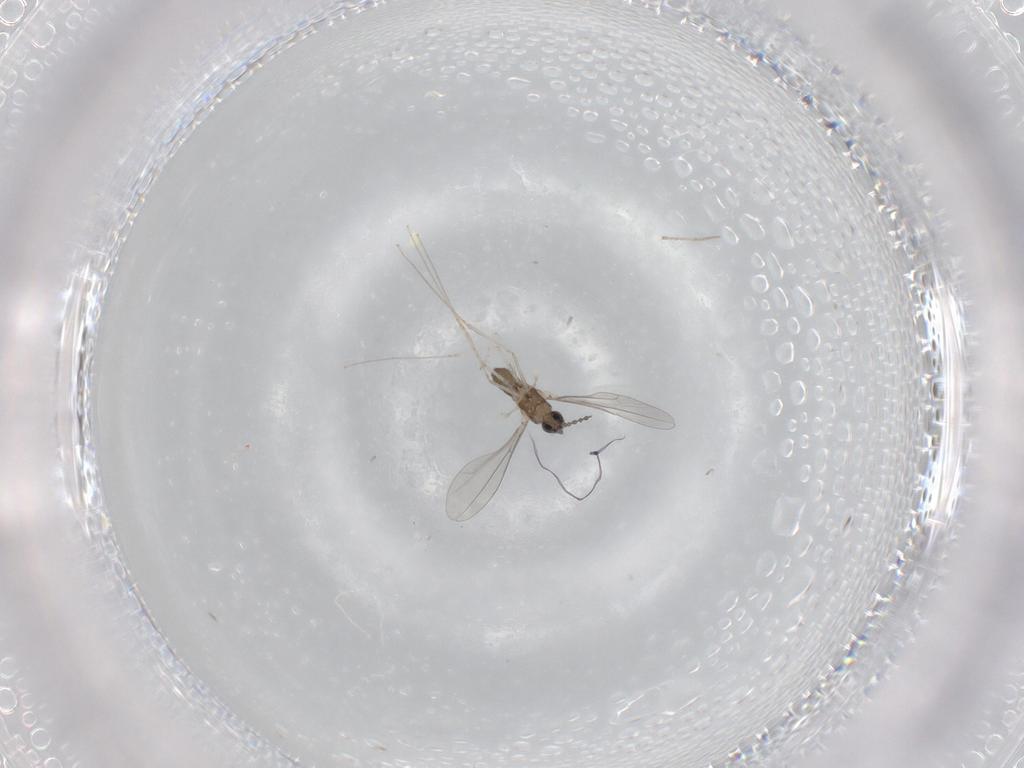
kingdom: Animalia
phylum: Arthropoda
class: Insecta
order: Diptera
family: Cecidomyiidae
